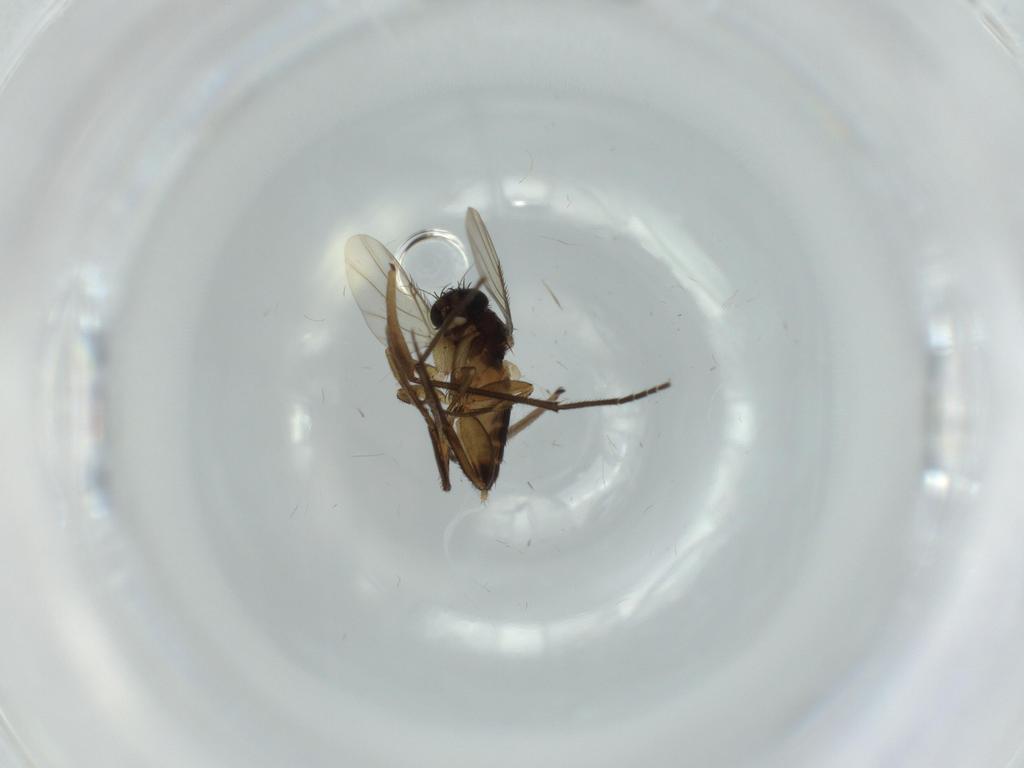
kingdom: Animalia
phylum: Arthropoda
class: Insecta
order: Diptera
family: Phoridae
